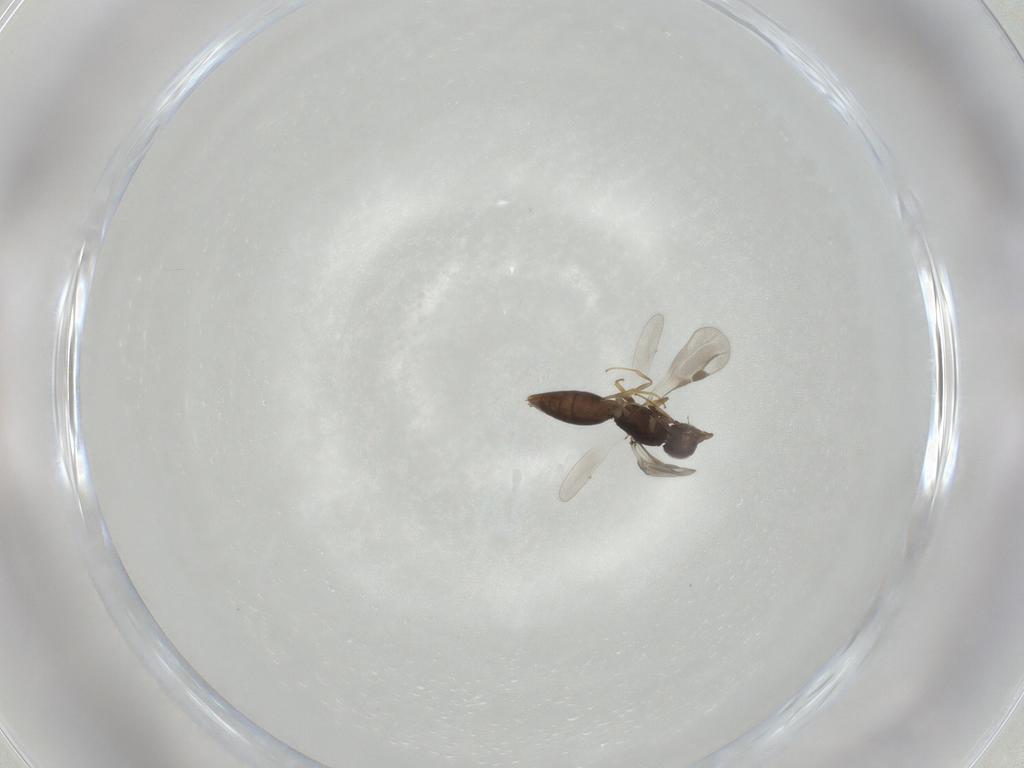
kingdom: Animalia
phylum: Arthropoda
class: Insecta
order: Hymenoptera
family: Megaspilidae
